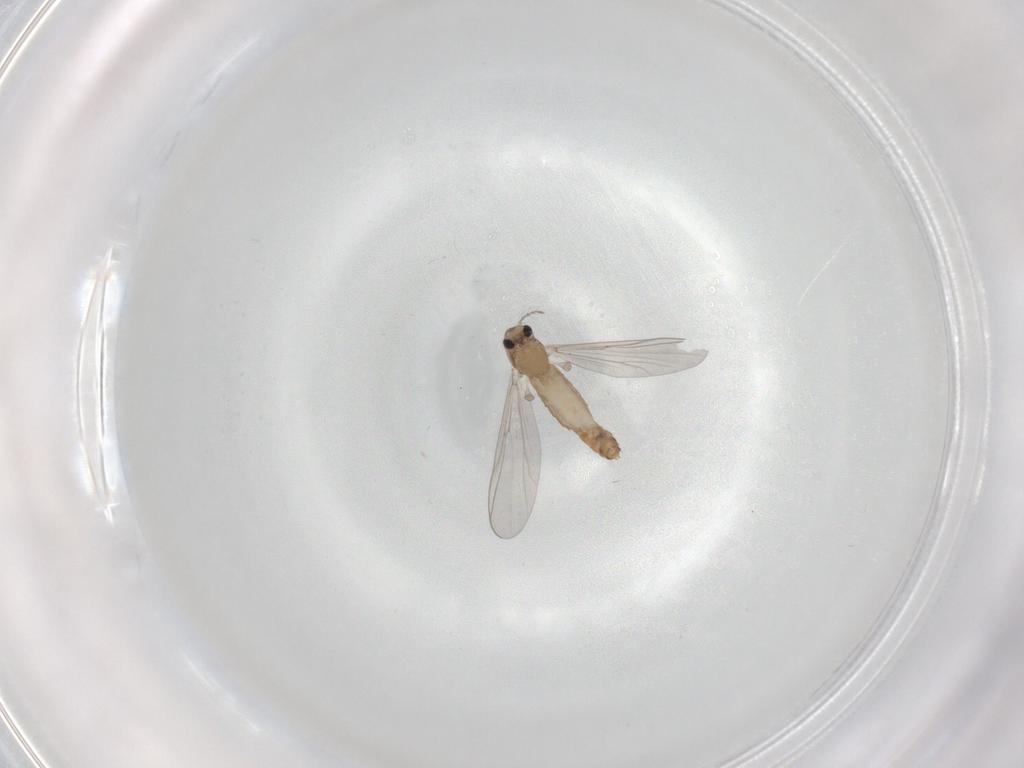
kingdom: Animalia
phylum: Arthropoda
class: Insecta
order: Diptera
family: Chironomidae
